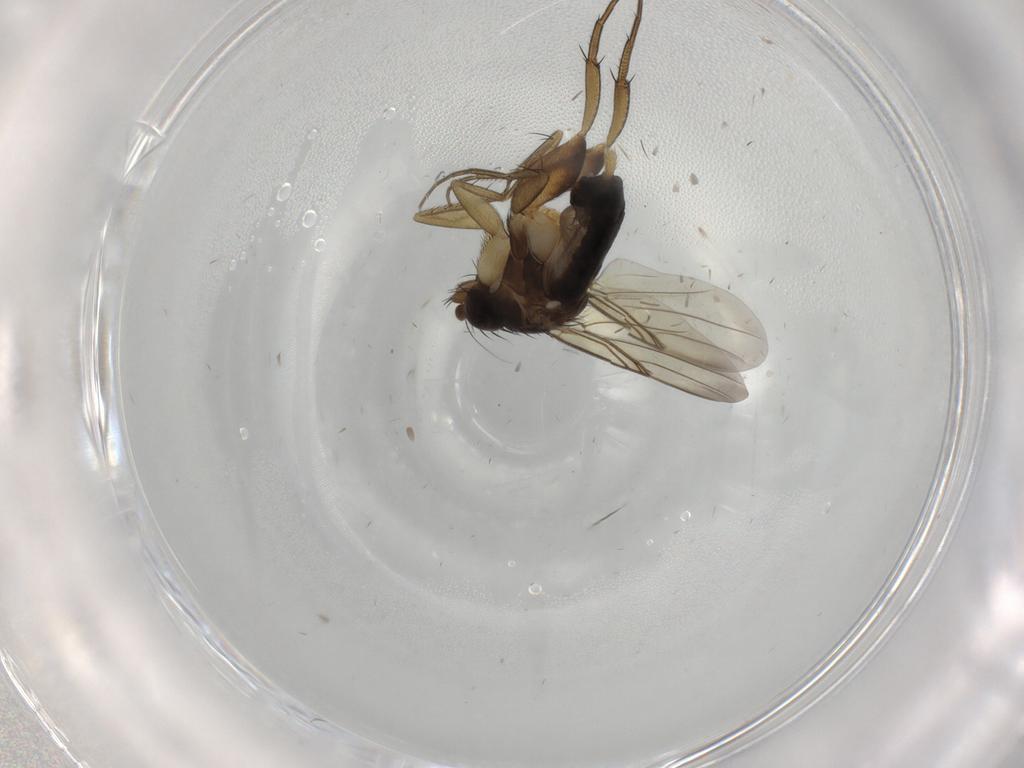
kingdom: Animalia
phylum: Arthropoda
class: Insecta
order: Diptera
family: Cecidomyiidae
